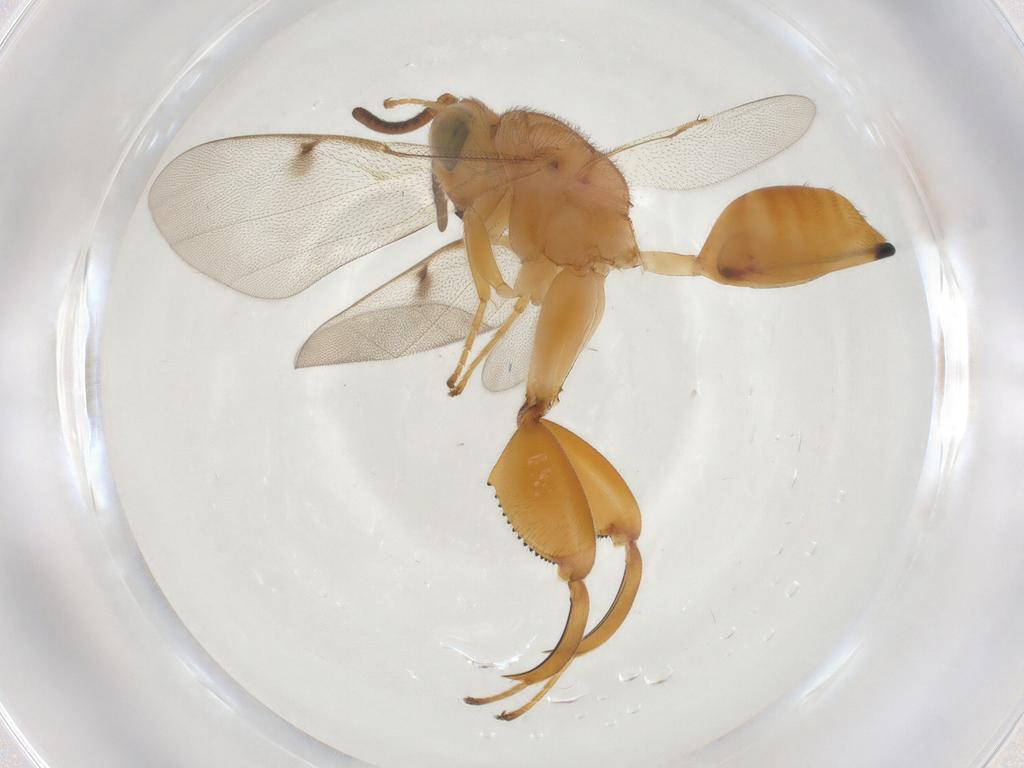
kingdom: Animalia
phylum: Arthropoda
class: Insecta
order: Hymenoptera
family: Chalcididae
